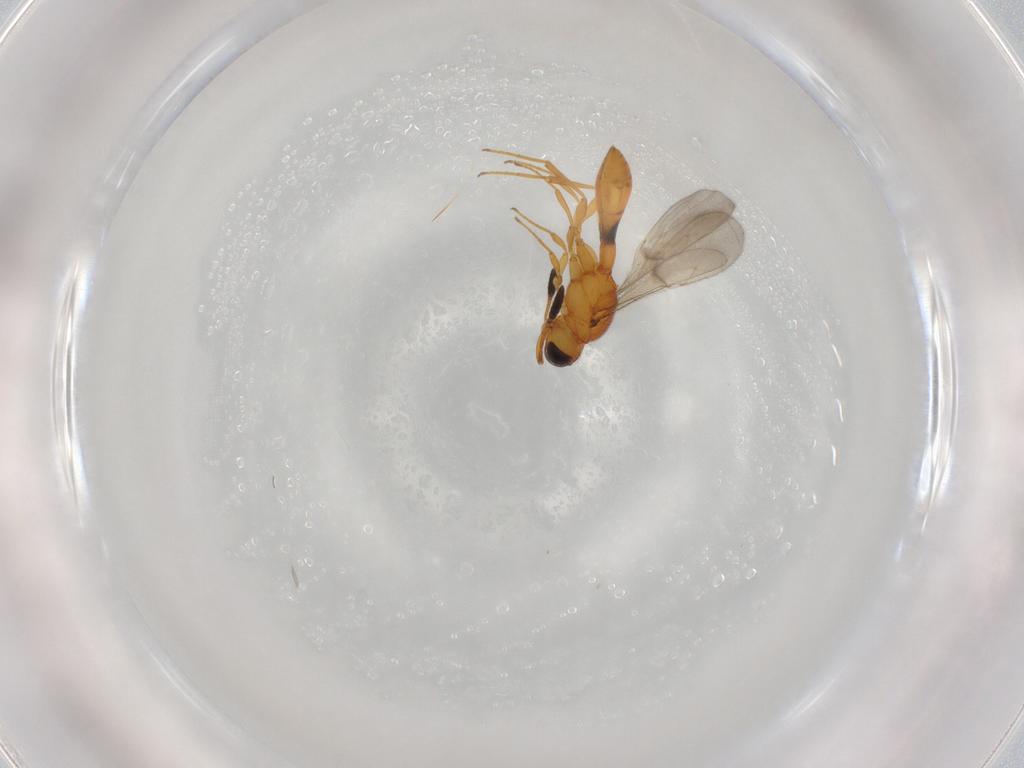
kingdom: Animalia
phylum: Arthropoda
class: Insecta
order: Hymenoptera
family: Scelionidae
